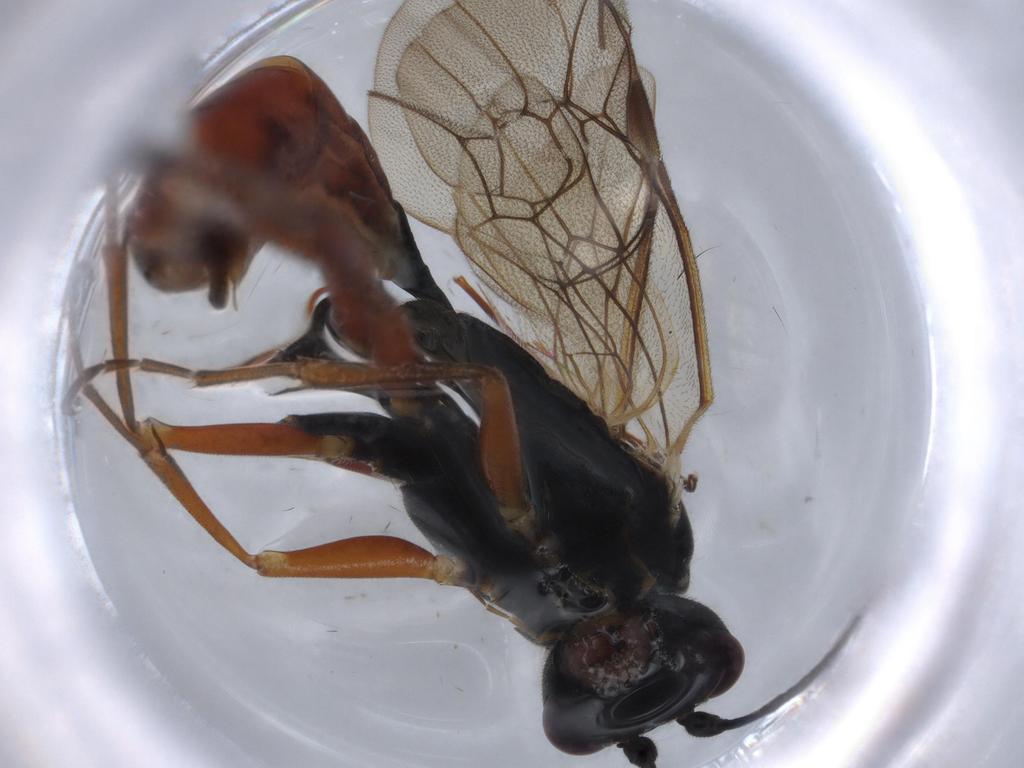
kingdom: Animalia
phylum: Arthropoda
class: Insecta
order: Hymenoptera
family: Ichneumonidae
